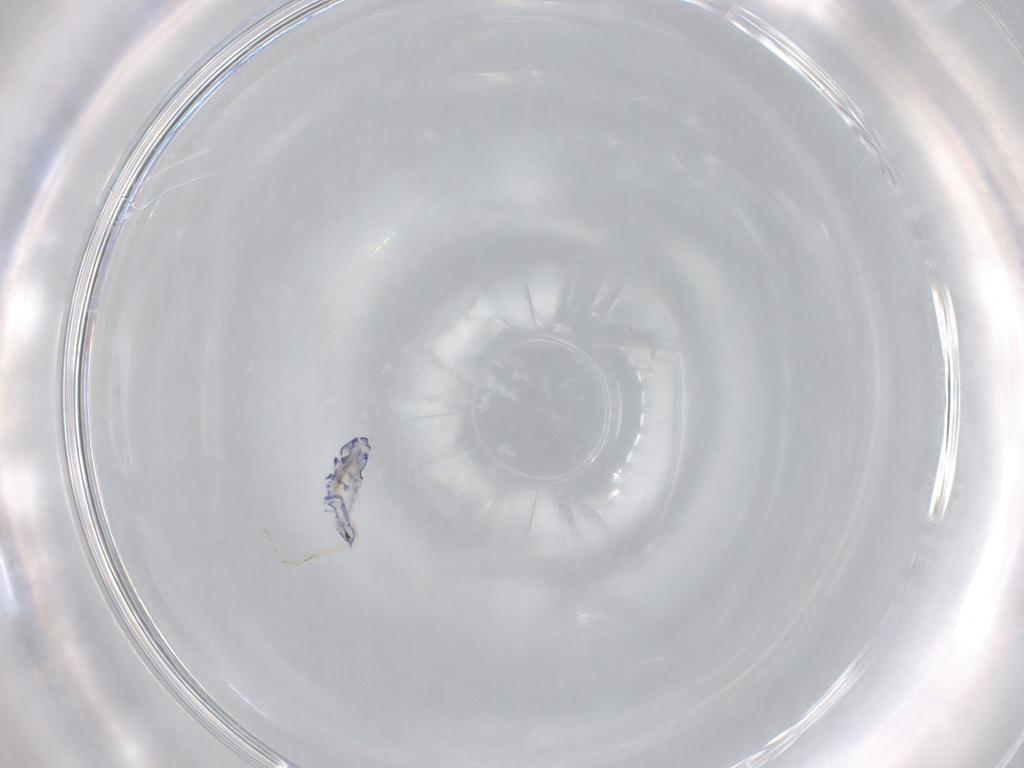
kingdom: Animalia
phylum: Arthropoda
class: Collembola
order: Entomobryomorpha
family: Entomobryidae
